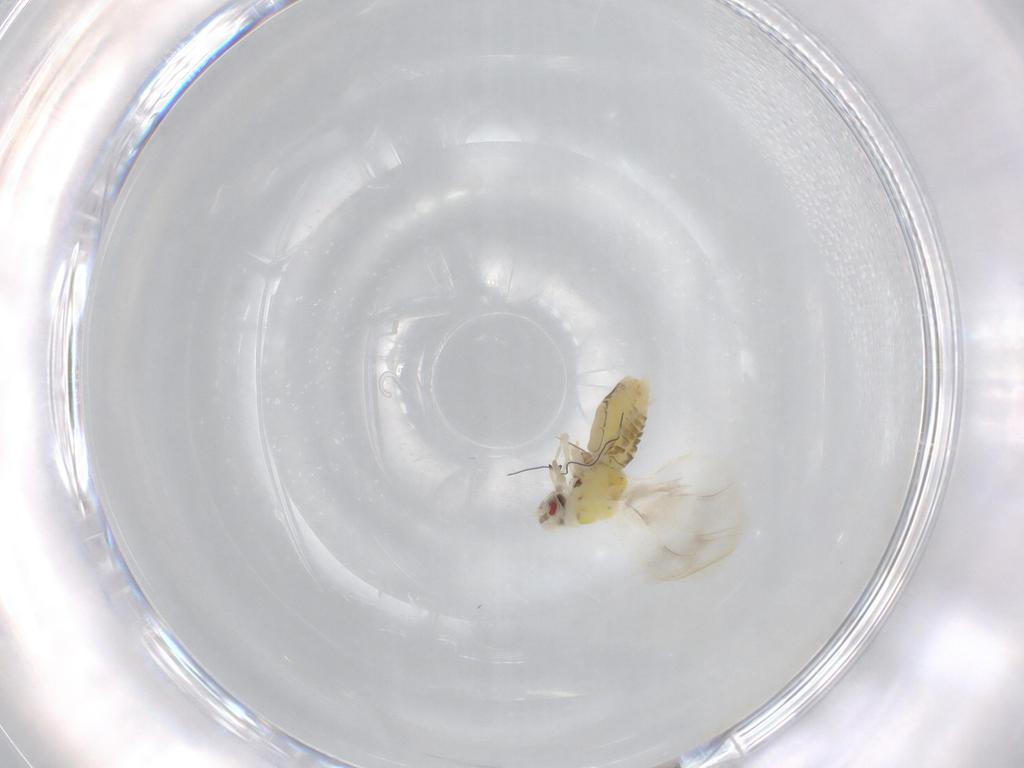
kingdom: Animalia
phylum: Arthropoda
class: Insecta
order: Hemiptera
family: Aleyrodidae
